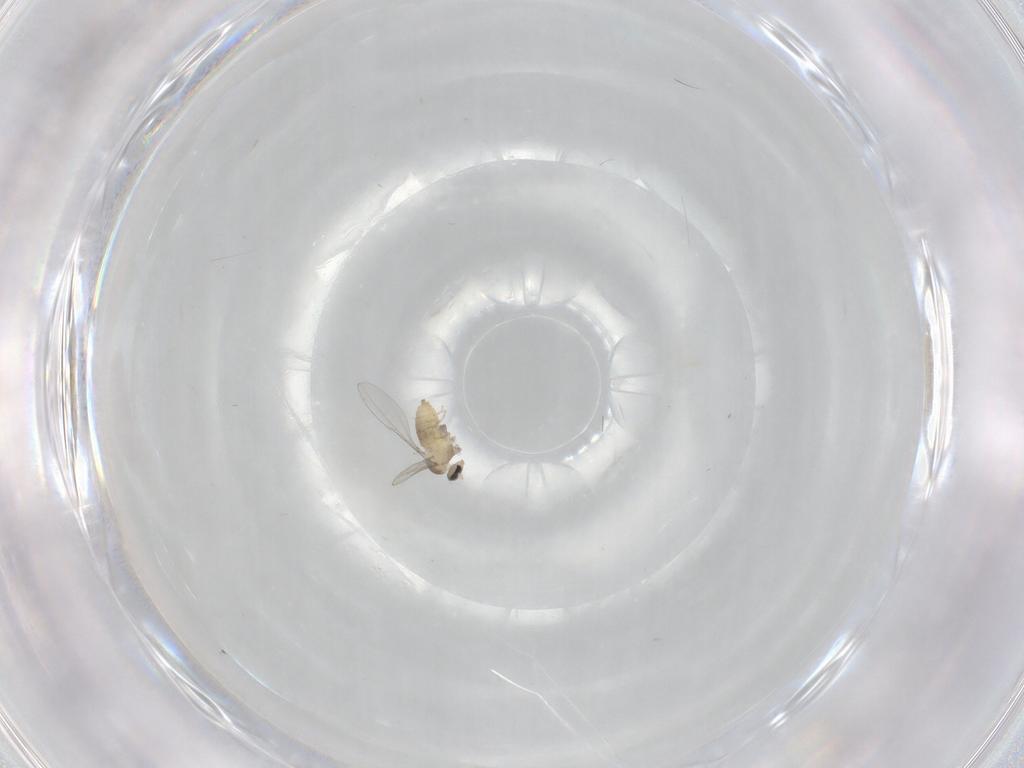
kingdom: Animalia
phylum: Arthropoda
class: Insecta
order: Diptera
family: Cecidomyiidae
